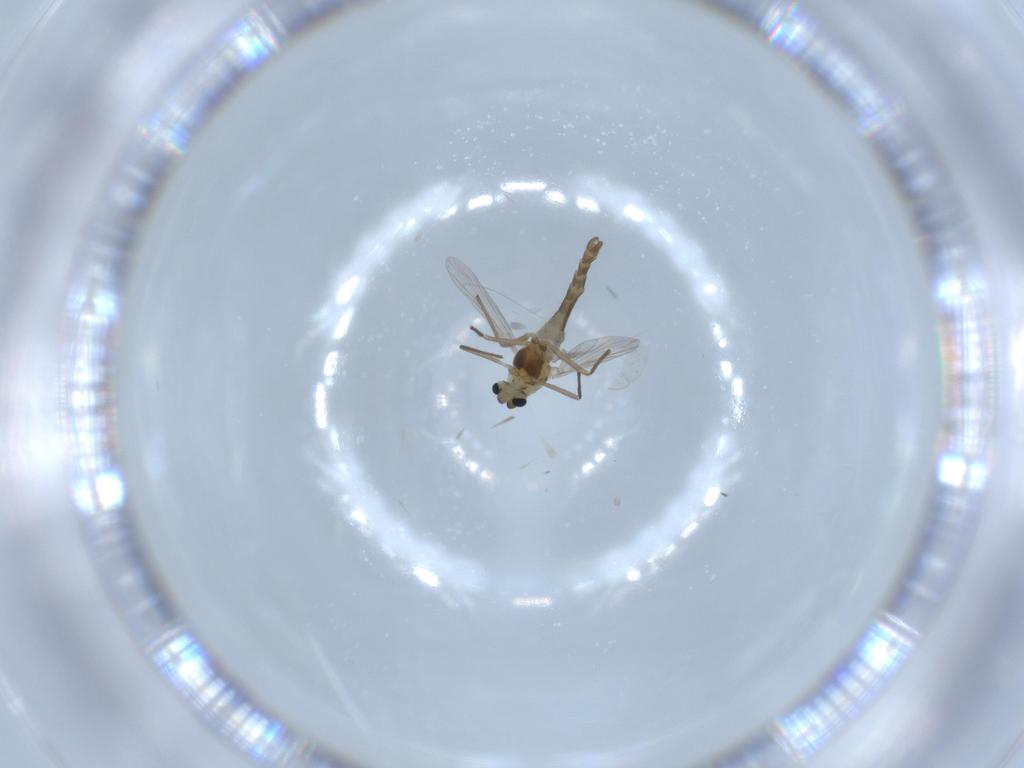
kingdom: Animalia
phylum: Arthropoda
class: Insecta
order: Diptera
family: Chironomidae
